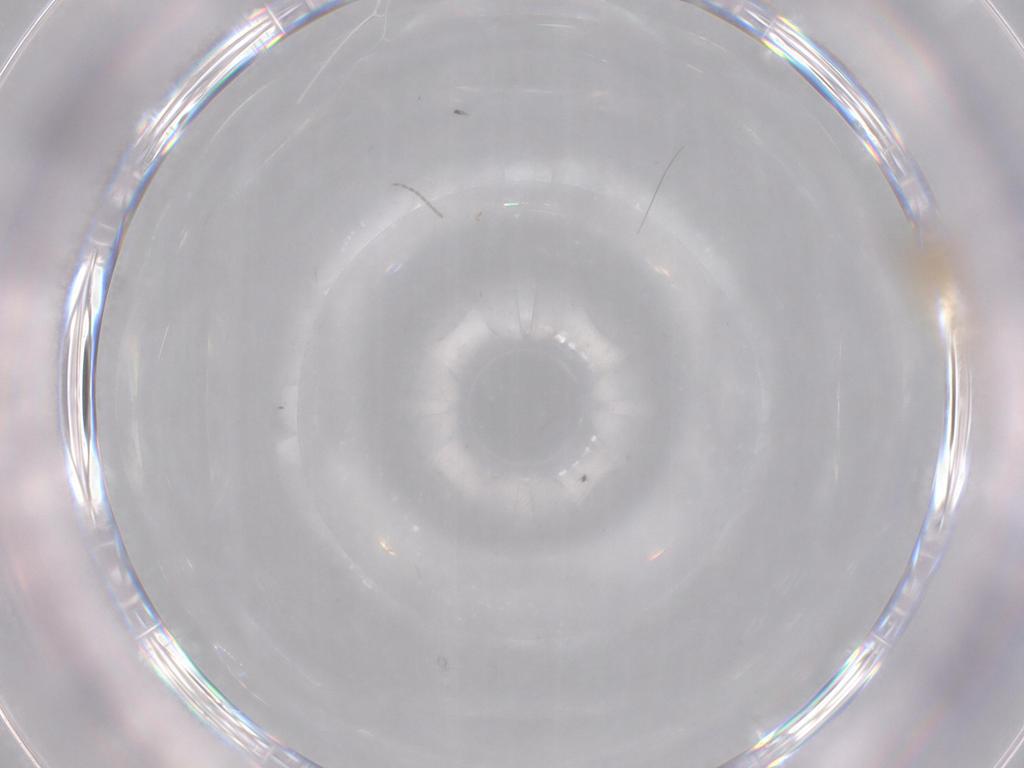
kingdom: Animalia
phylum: Arthropoda
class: Insecta
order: Diptera
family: Cecidomyiidae
